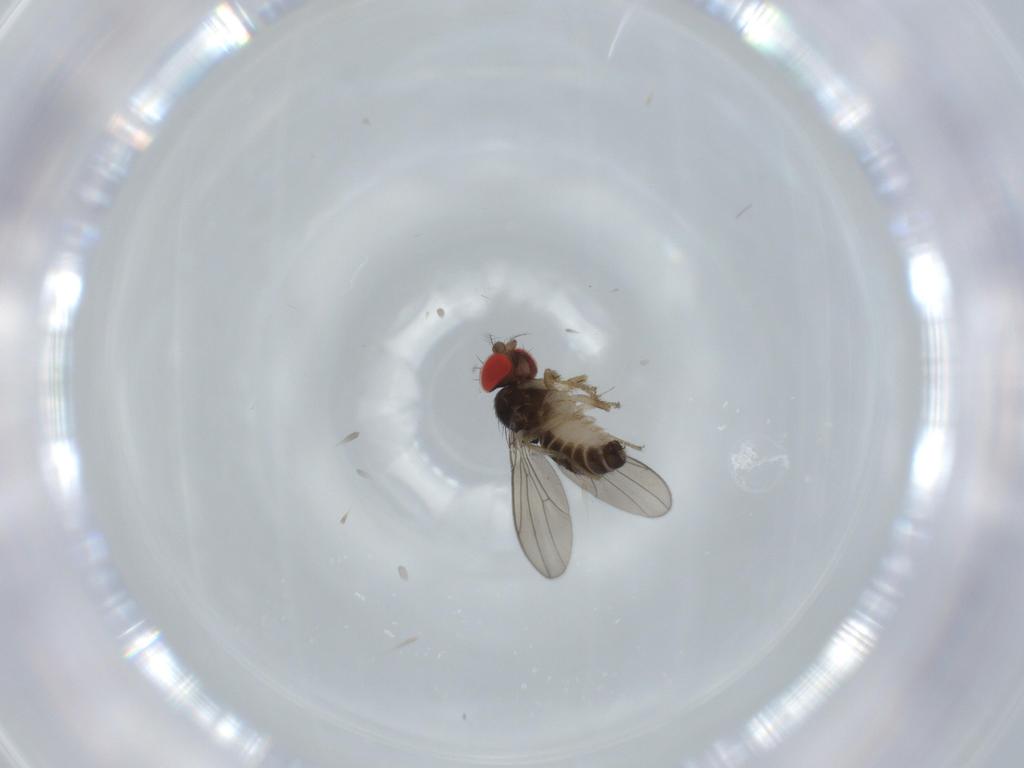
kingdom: Animalia
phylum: Arthropoda
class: Insecta
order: Diptera
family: Drosophilidae
